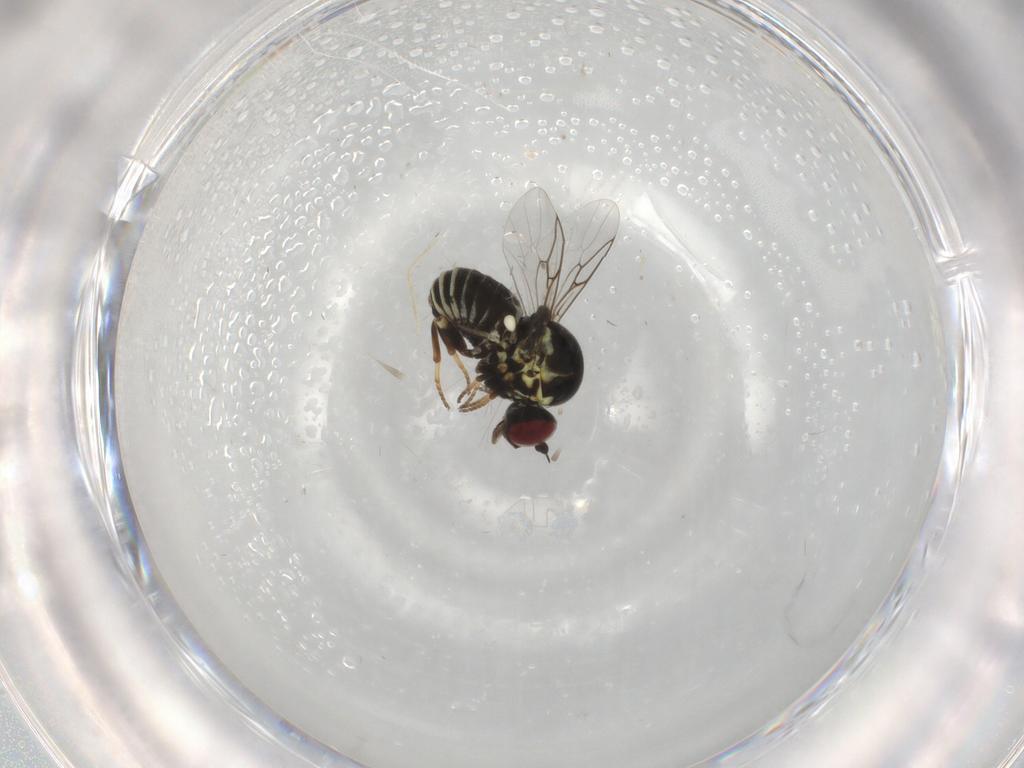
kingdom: Animalia
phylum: Arthropoda
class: Insecta
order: Diptera
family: Mythicomyiidae
